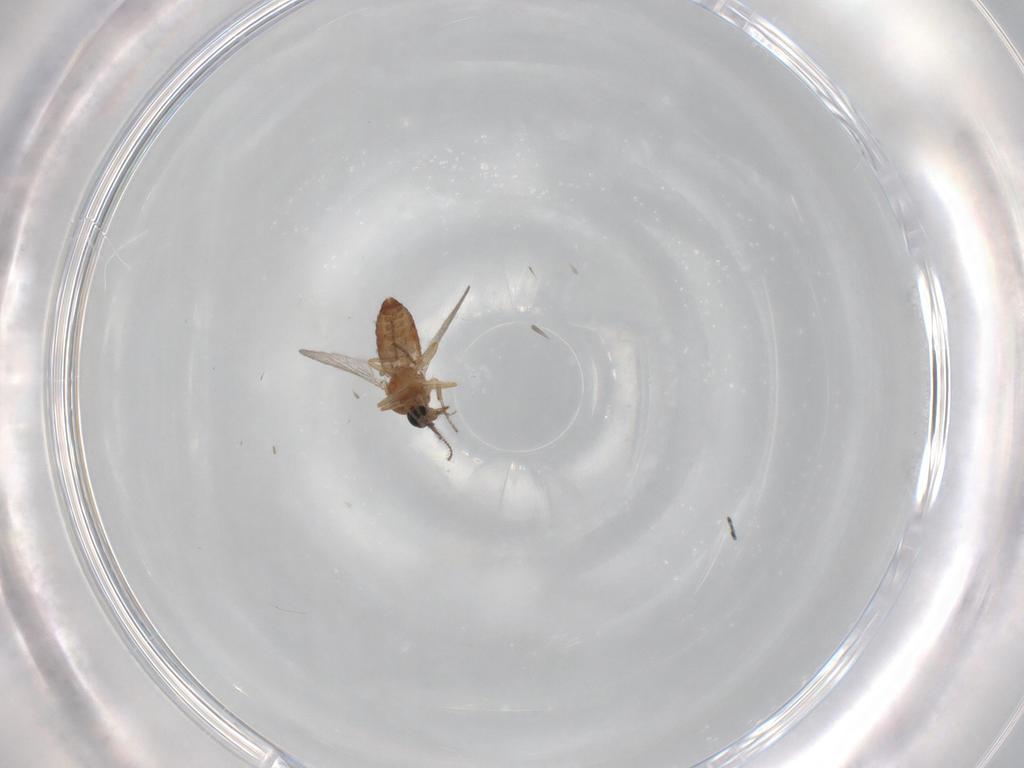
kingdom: Animalia
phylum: Arthropoda
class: Insecta
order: Diptera
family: Ceratopogonidae
